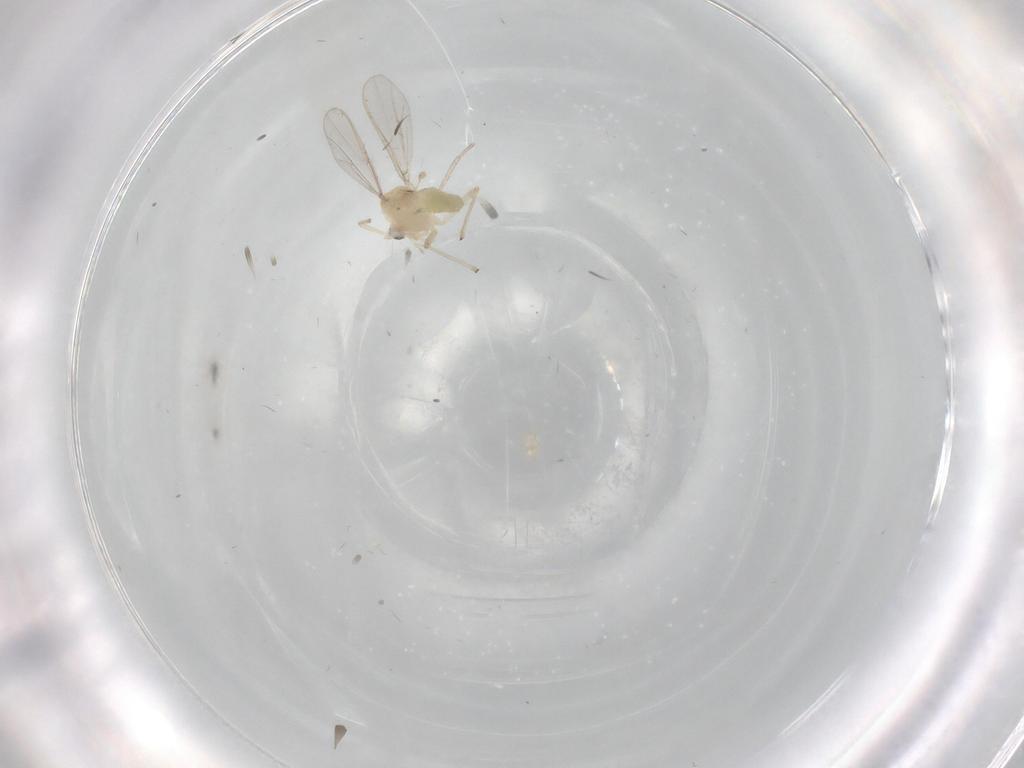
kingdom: Animalia
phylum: Arthropoda
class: Insecta
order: Diptera
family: Chironomidae
